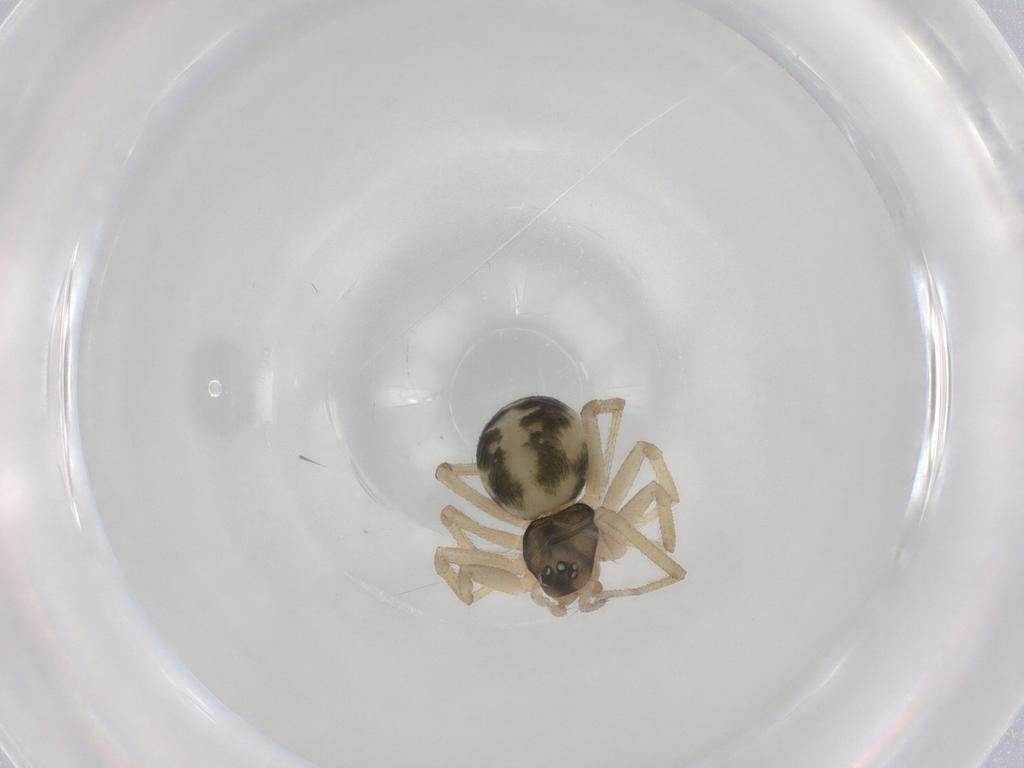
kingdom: Animalia
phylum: Arthropoda
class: Arachnida
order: Araneae
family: Linyphiidae
